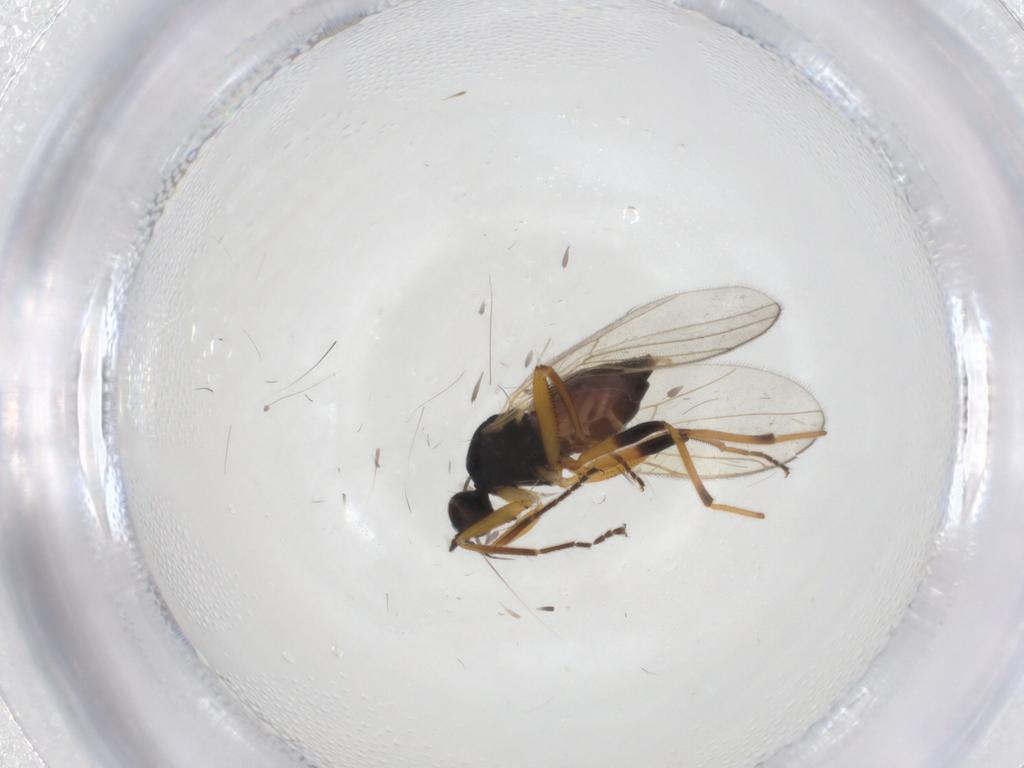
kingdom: Animalia
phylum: Arthropoda
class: Insecta
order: Diptera
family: Hybotidae
